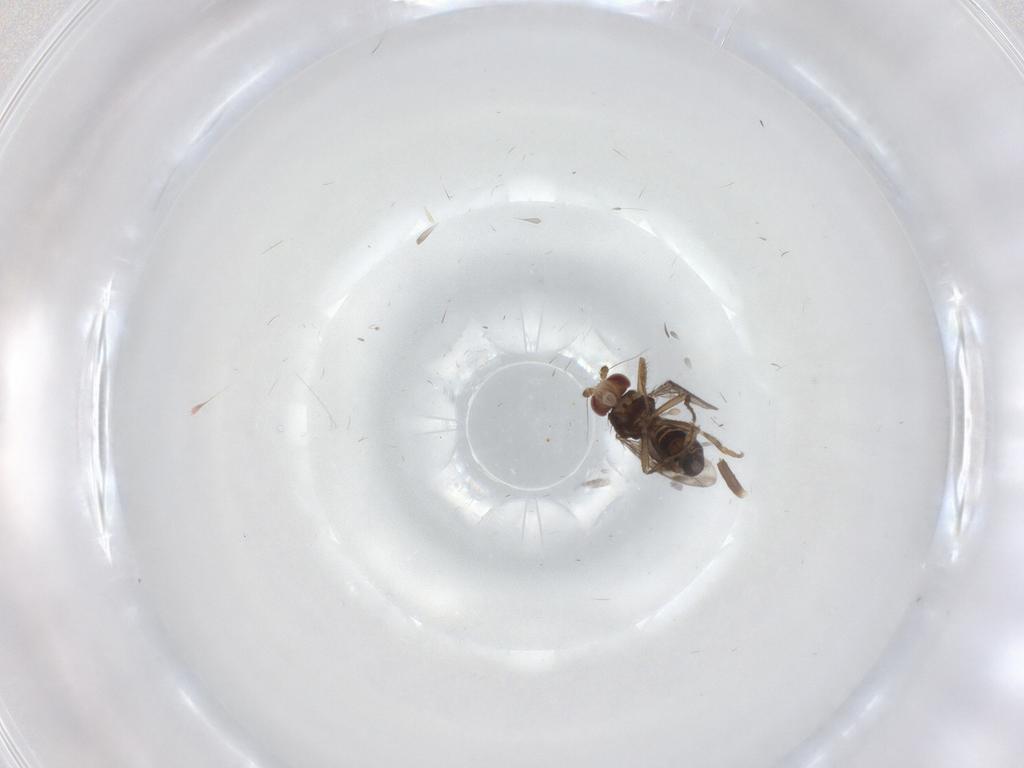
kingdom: Animalia
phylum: Arthropoda
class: Insecta
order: Diptera
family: Sphaeroceridae
